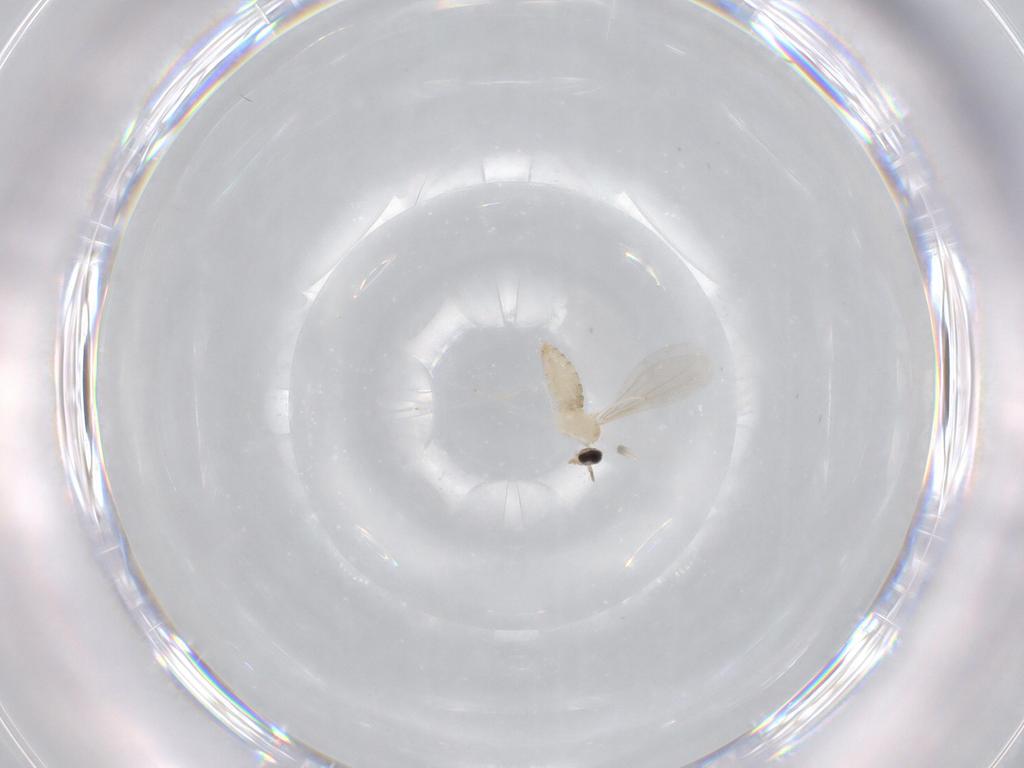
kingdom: Animalia
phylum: Arthropoda
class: Insecta
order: Diptera
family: Cecidomyiidae
